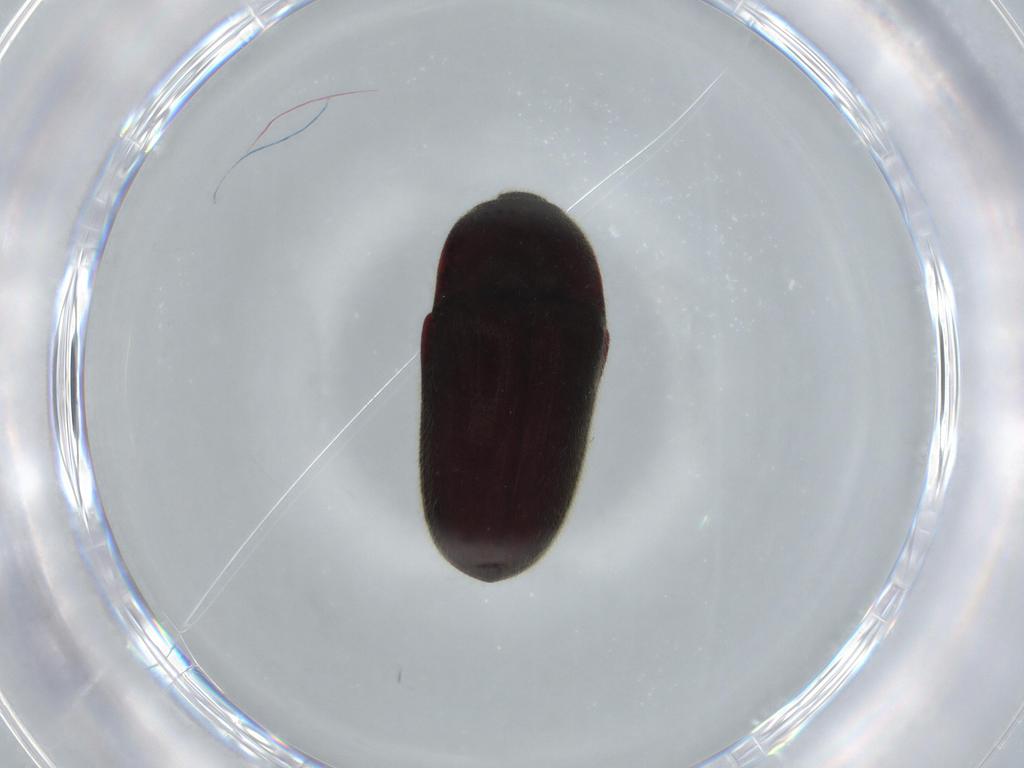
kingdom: Animalia
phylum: Arthropoda
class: Insecta
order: Coleoptera
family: Throscidae
